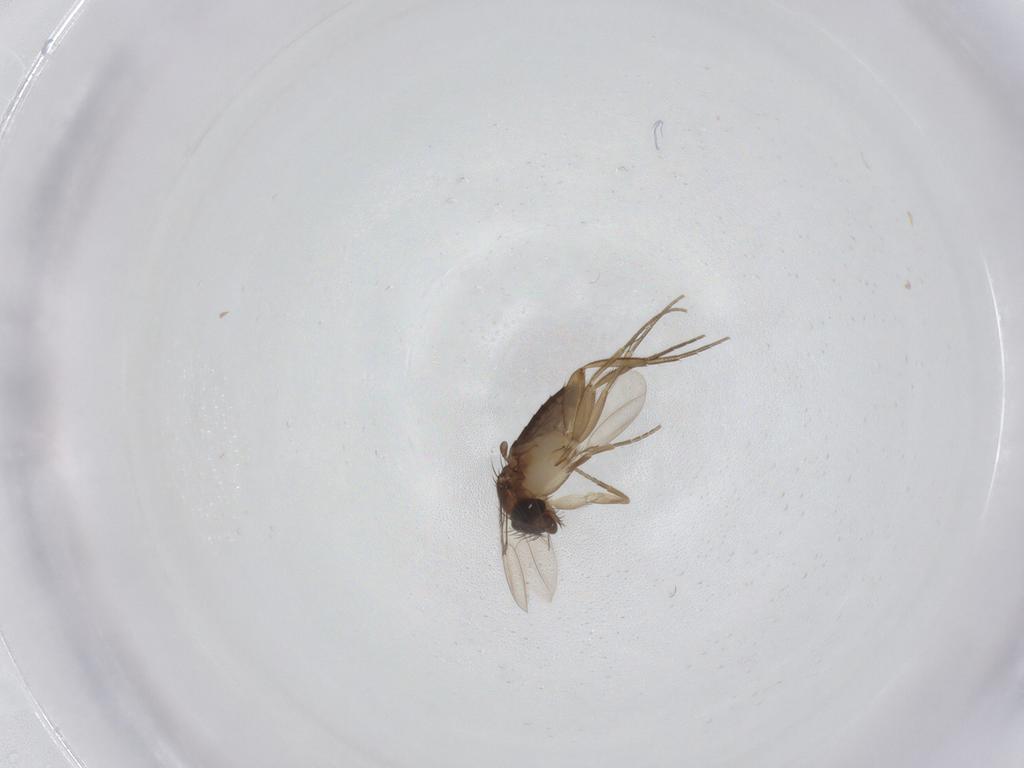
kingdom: Animalia
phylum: Arthropoda
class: Insecta
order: Diptera
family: Phoridae
